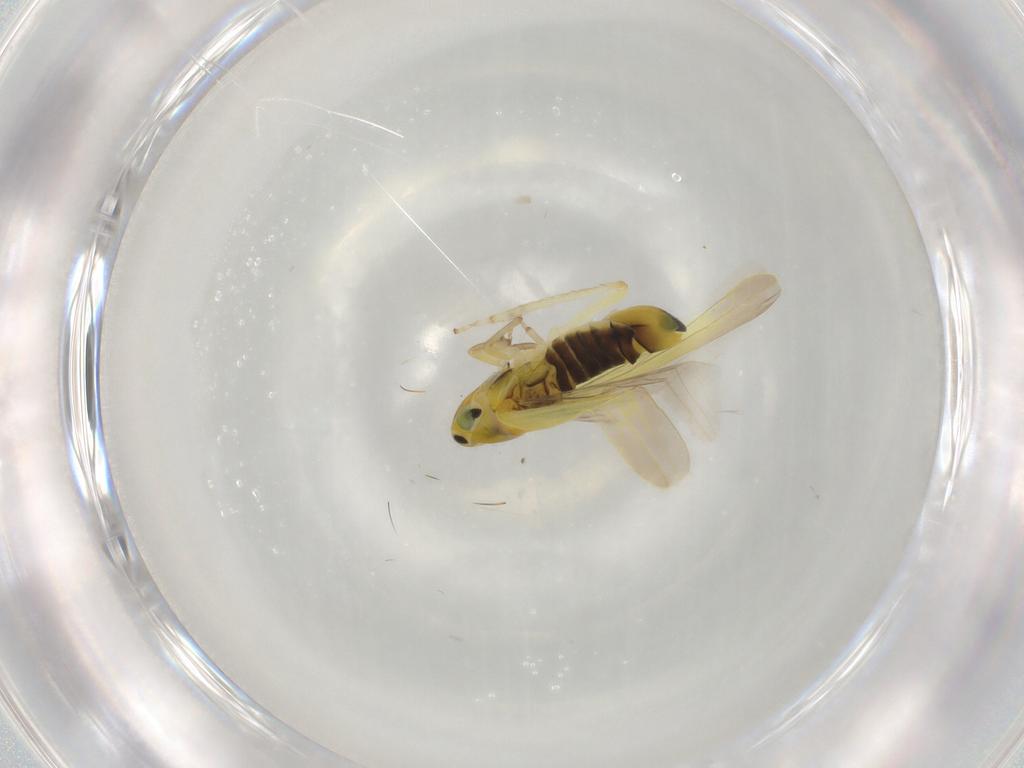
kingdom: Animalia
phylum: Arthropoda
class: Insecta
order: Hemiptera
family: Cicadellidae
